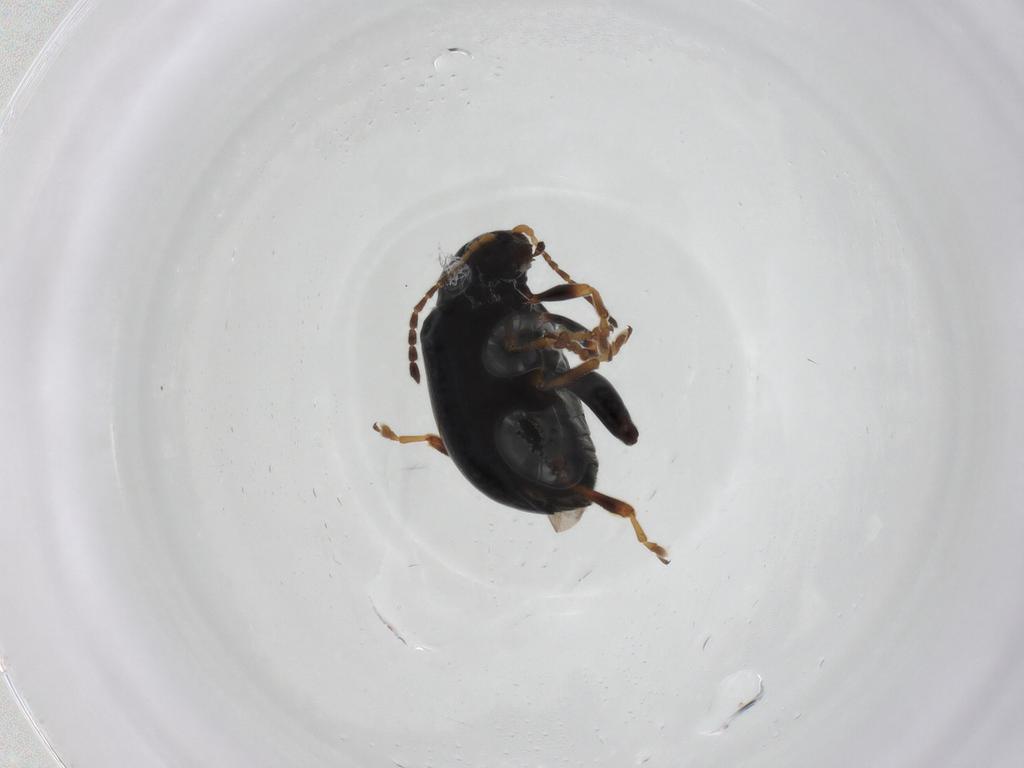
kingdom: Animalia
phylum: Arthropoda
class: Insecta
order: Coleoptera
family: Chrysomelidae
